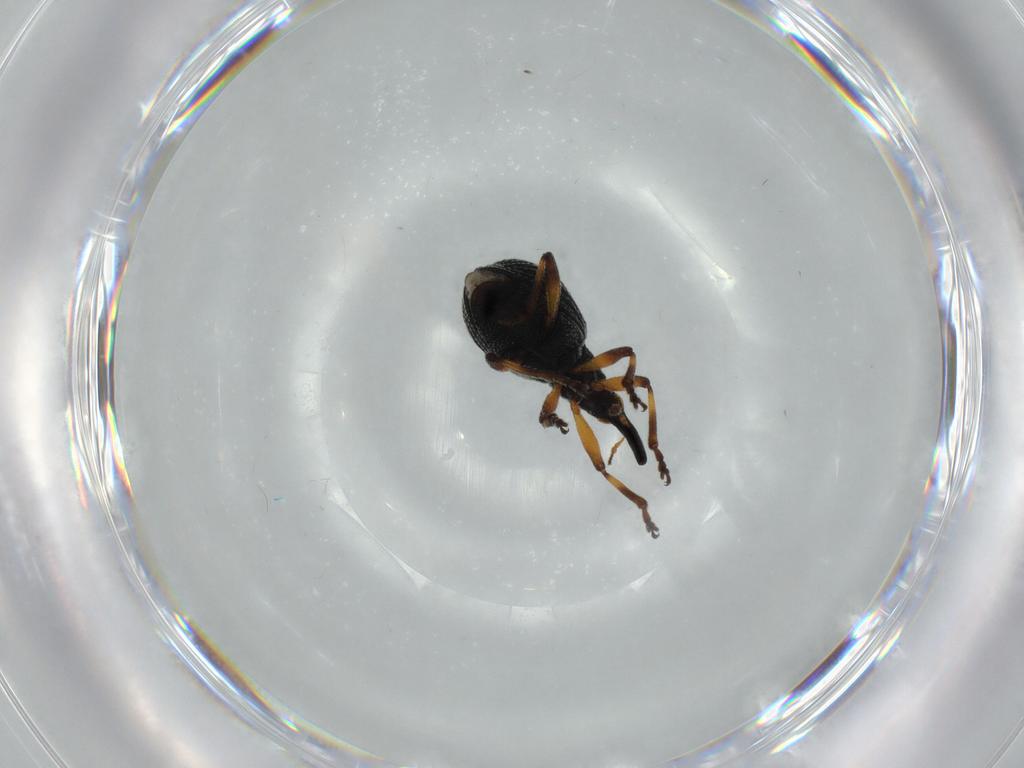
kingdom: Animalia
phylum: Arthropoda
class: Insecta
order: Coleoptera
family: Brentidae
